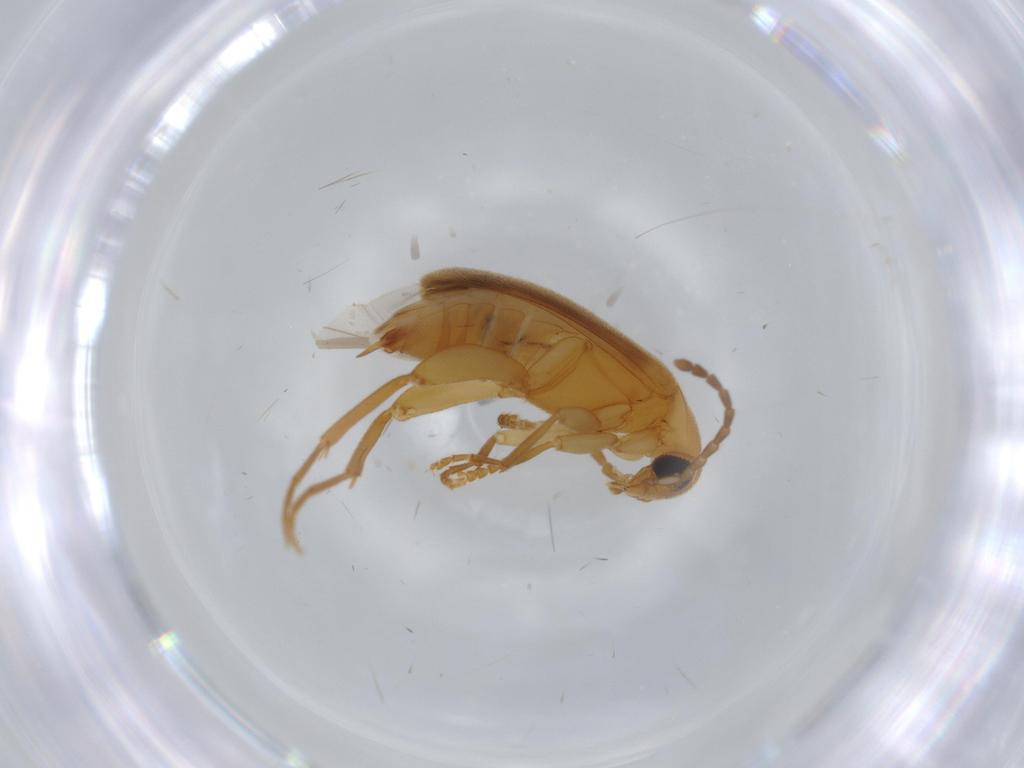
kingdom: Animalia
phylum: Arthropoda
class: Insecta
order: Coleoptera
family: Scraptiidae
